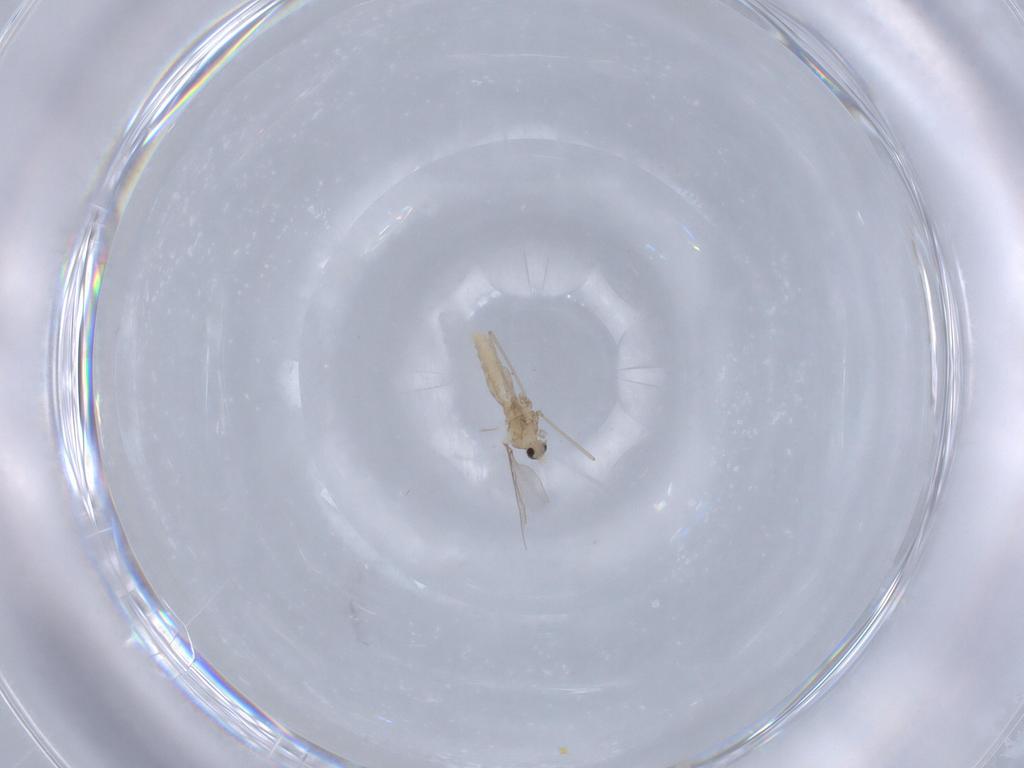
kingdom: Animalia
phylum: Arthropoda
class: Insecta
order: Diptera
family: Cecidomyiidae
